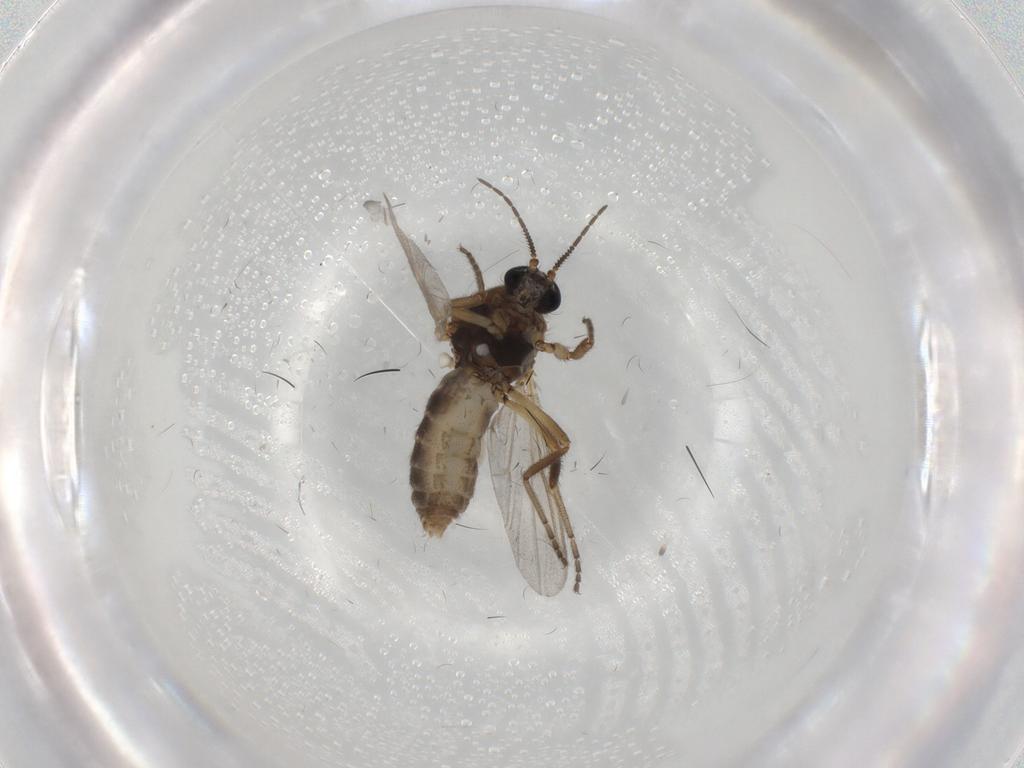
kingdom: Animalia
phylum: Arthropoda
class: Insecta
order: Diptera
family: Ceratopogonidae
